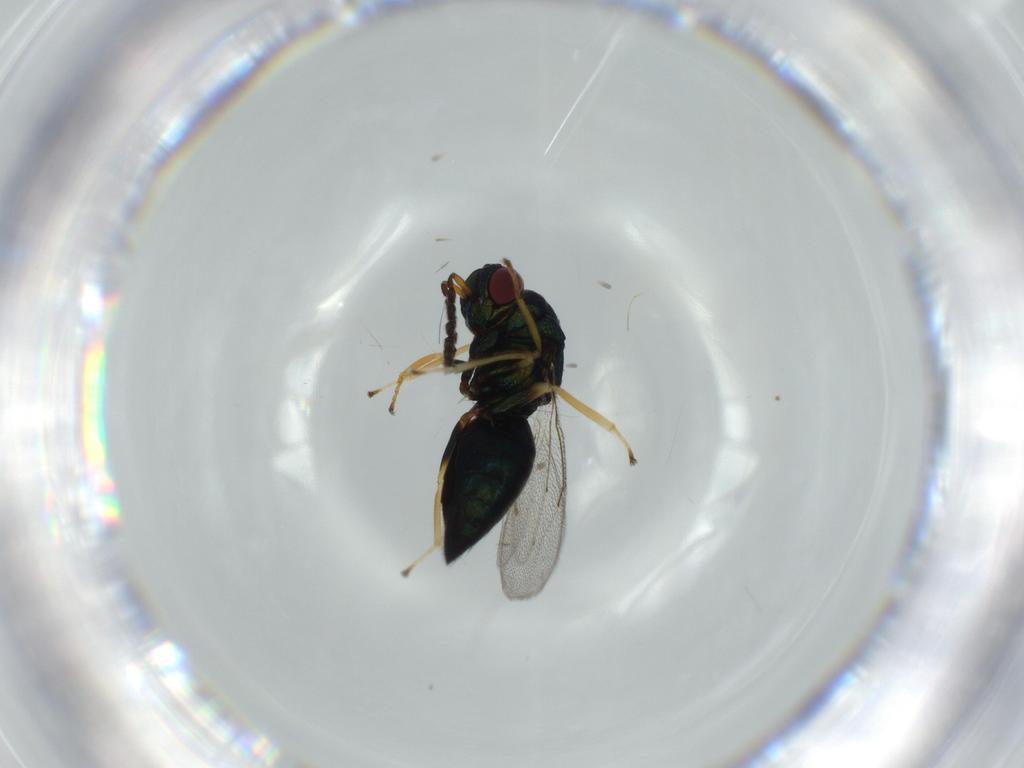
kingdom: Animalia
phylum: Arthropoda
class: Insecta
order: Hymenoptera
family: Eulophidae
